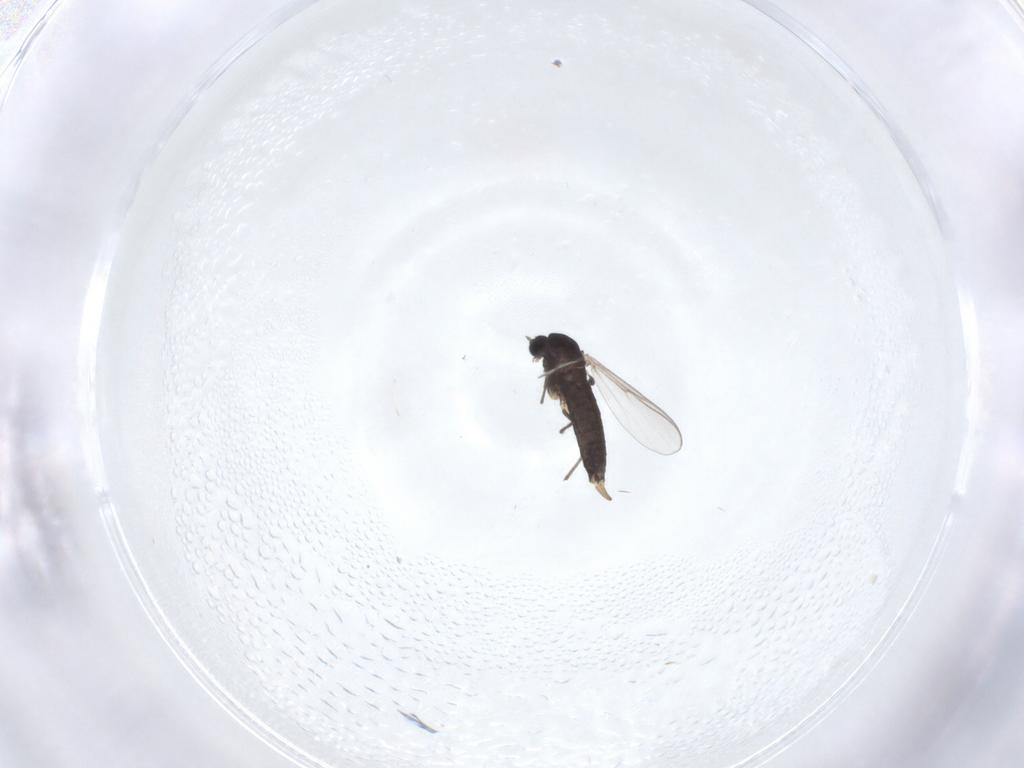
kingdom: Animalia
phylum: Arthropoda
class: Insecta
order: Diptera
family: Chironomidae
